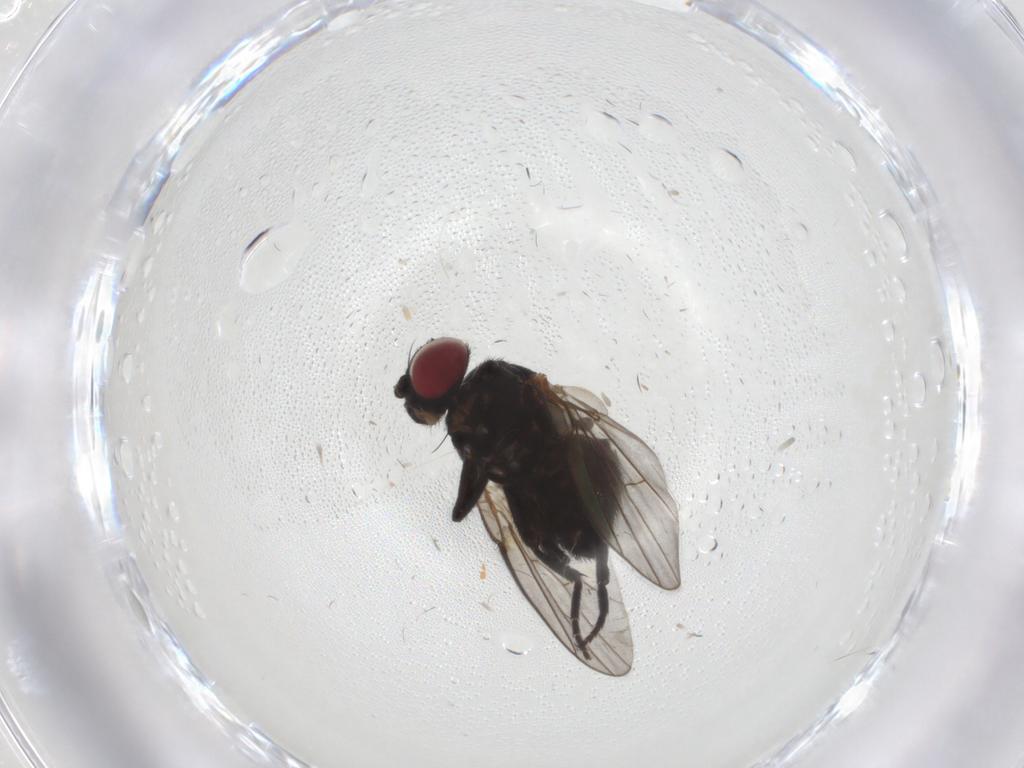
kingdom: Animalia
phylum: Arthropoda
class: Insecta
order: Diptera
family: Agromyzidae
